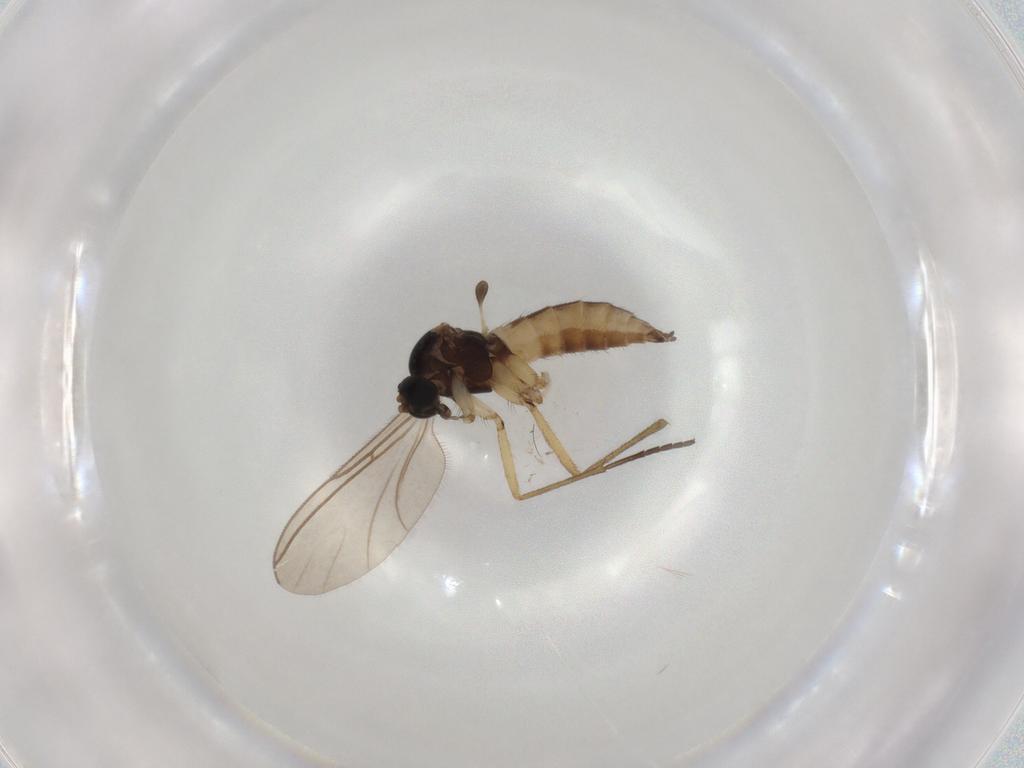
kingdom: Animalia
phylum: Arthropoda
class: Insecta
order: Diptera
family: Sciaridae
